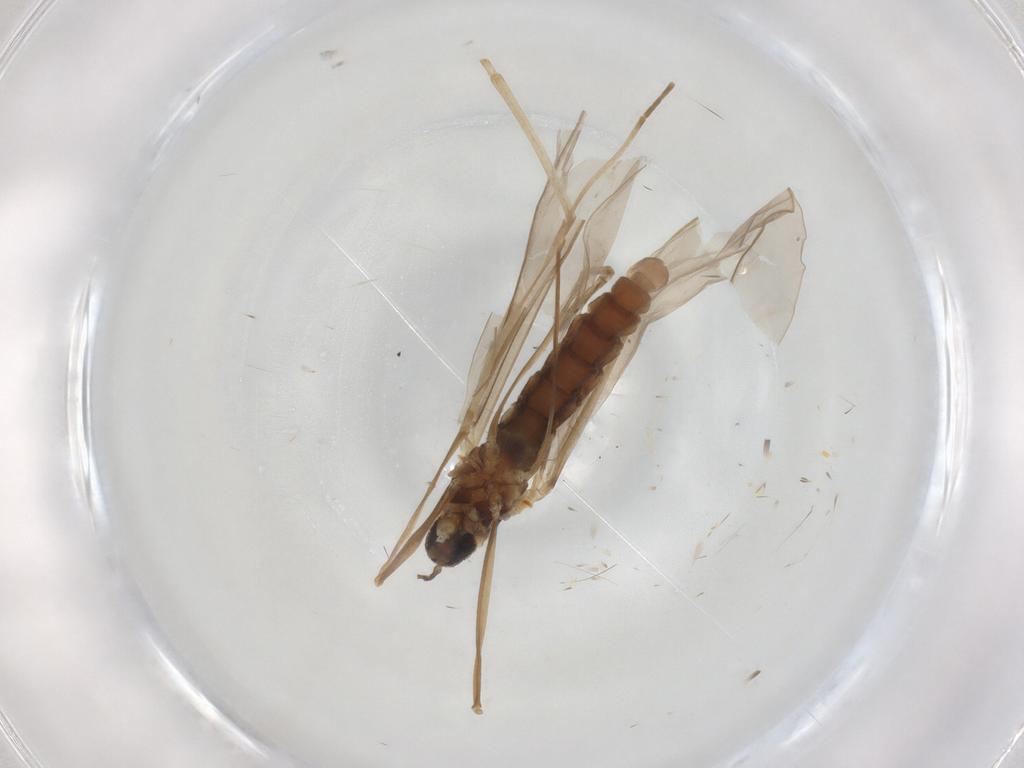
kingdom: Animalia
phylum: Arthropoda
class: Insecta
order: Diptera
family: Cecidomyiidae
